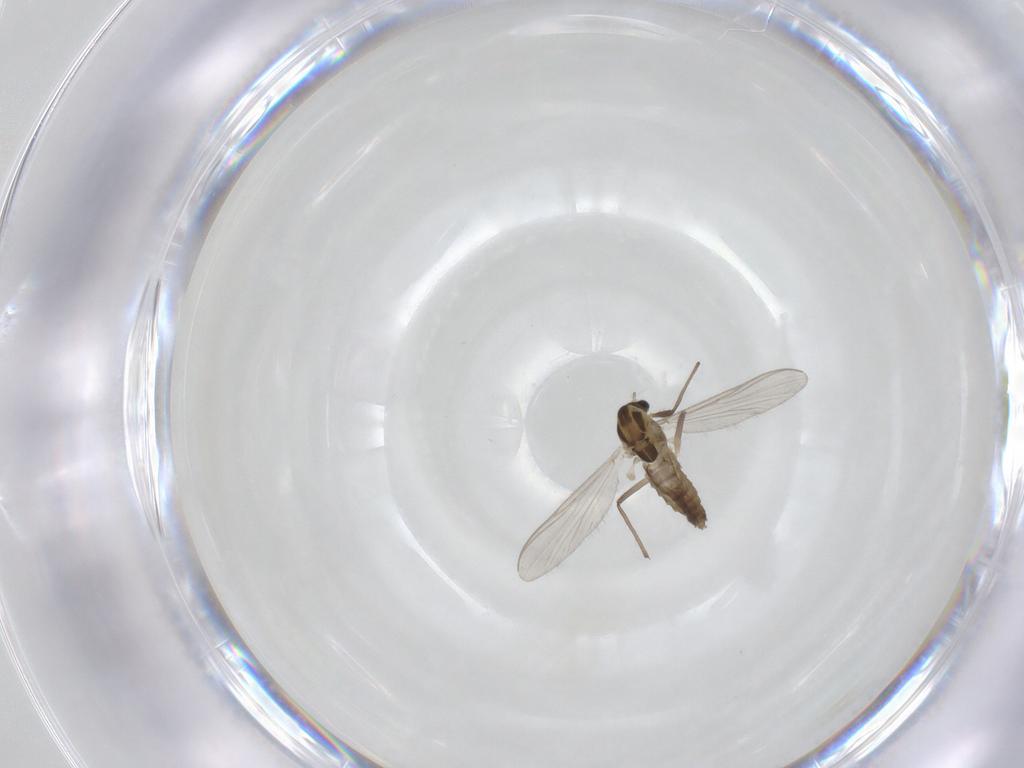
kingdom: Animalia
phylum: Arthropoda
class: Insecta
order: Diptera
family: Chironomidae
